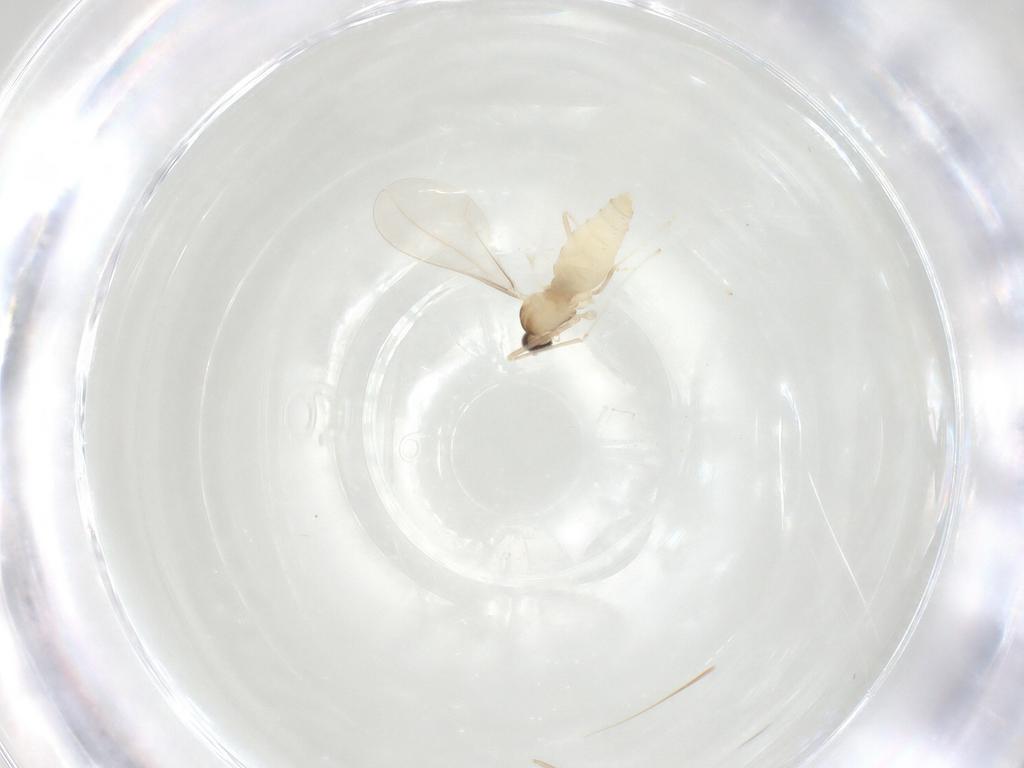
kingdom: Animalia
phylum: Arthropoda
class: Insecta
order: Diptera
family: Cecidomyiidae
